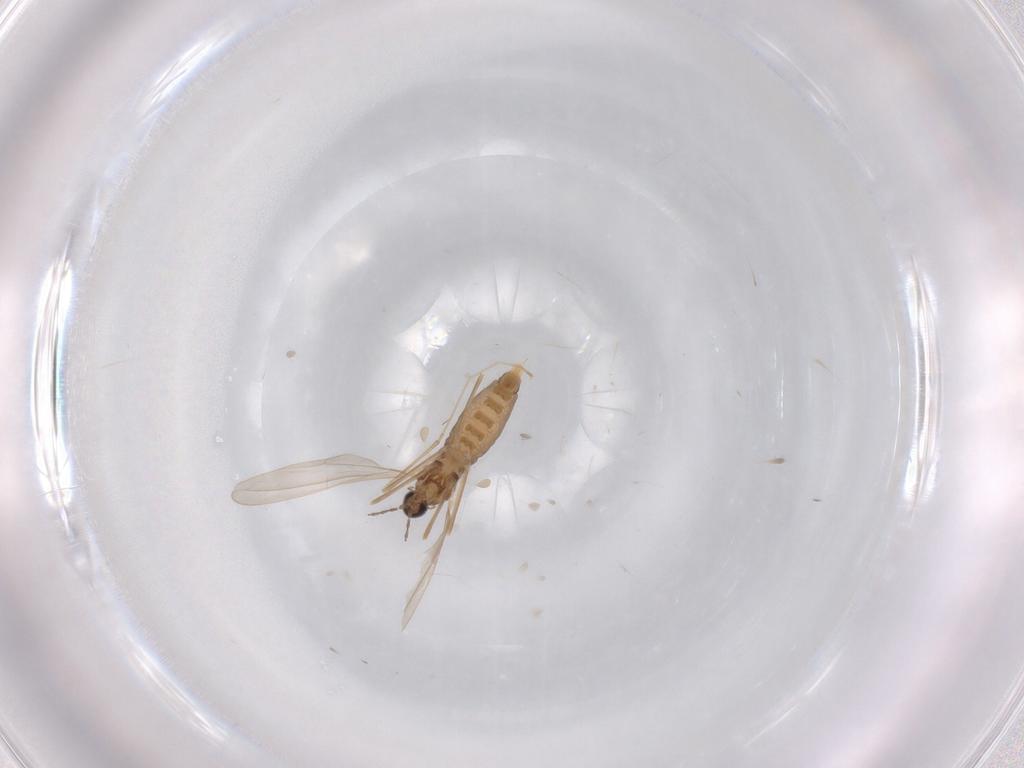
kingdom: Animalia
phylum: Arthropoda
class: Insecta
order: Diptera
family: Cecidomyiidae
